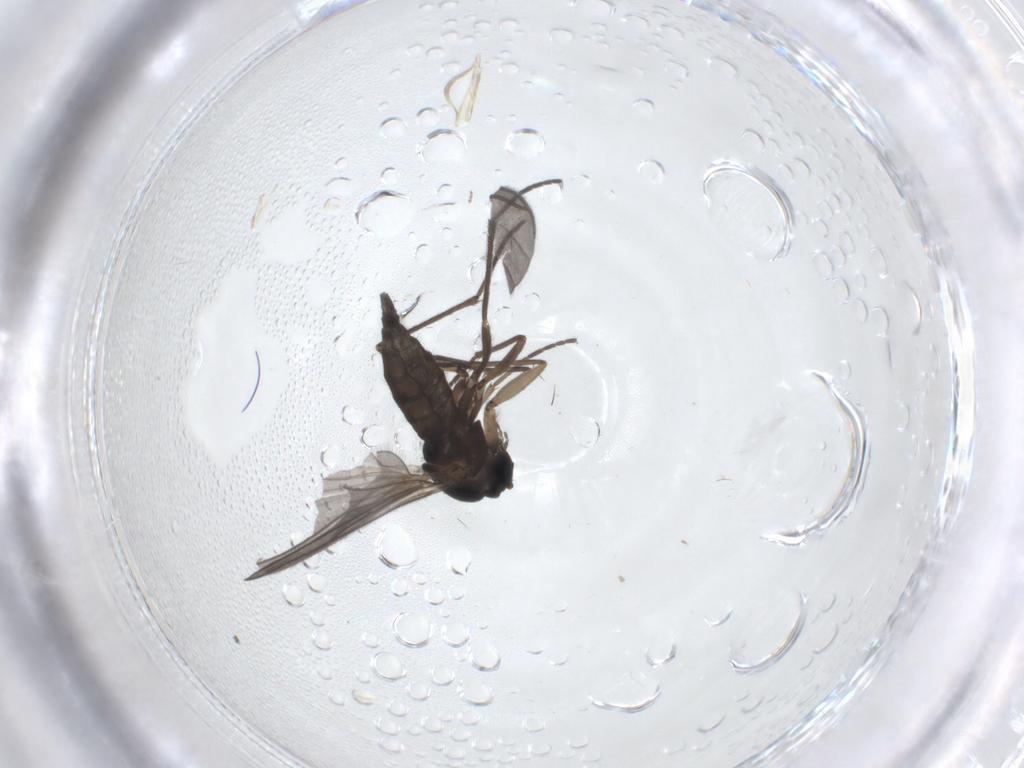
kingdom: Animalia
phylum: Arthropoda
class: Insecta
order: Diptera
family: Sciaridae
